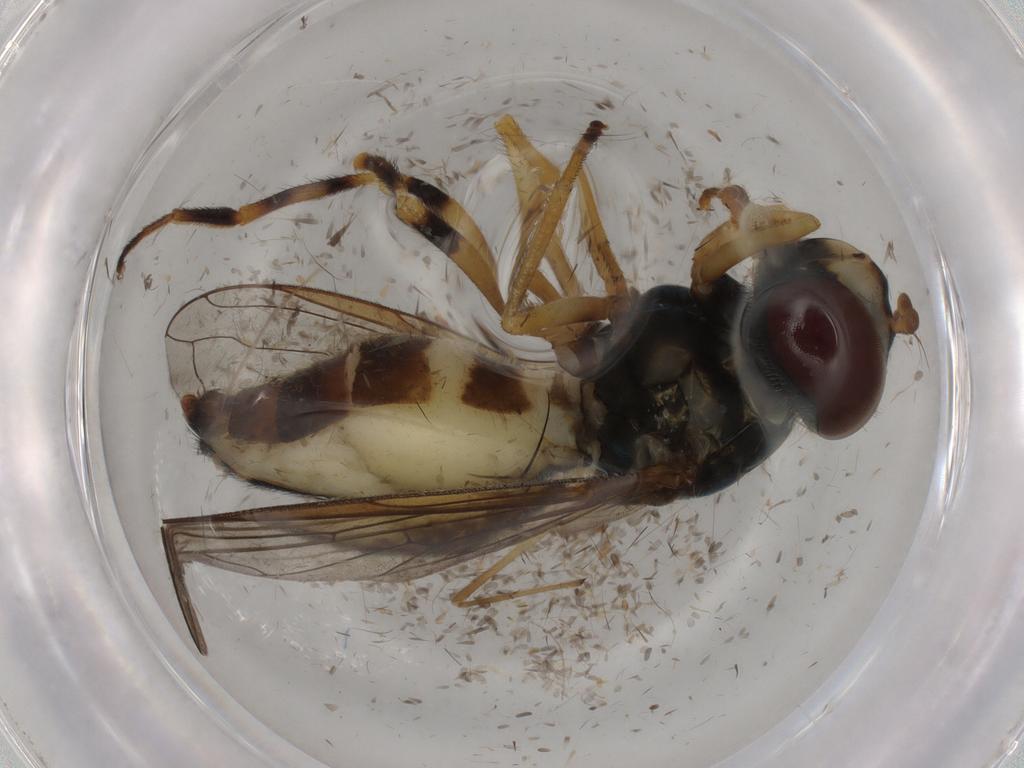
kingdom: Animalia
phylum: Arthropoda
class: Insecta
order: Diptera
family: Syrphidae
